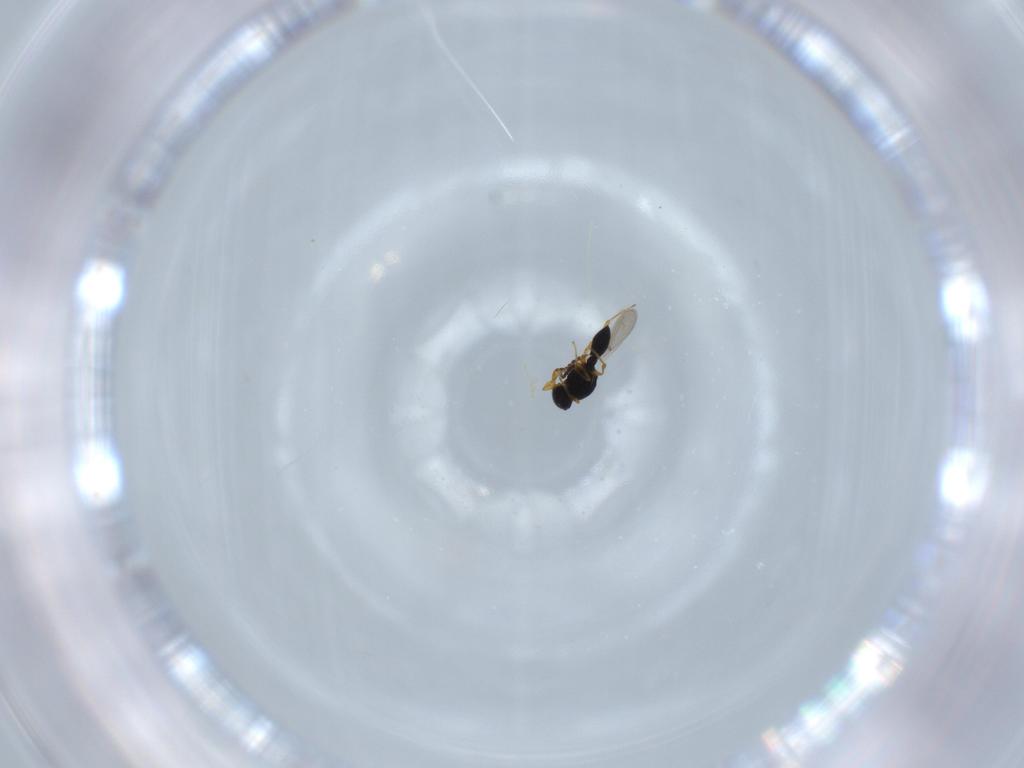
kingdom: Animalia
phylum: Arthropoda
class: Insecta
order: Hymenoptera
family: Platygastridae
